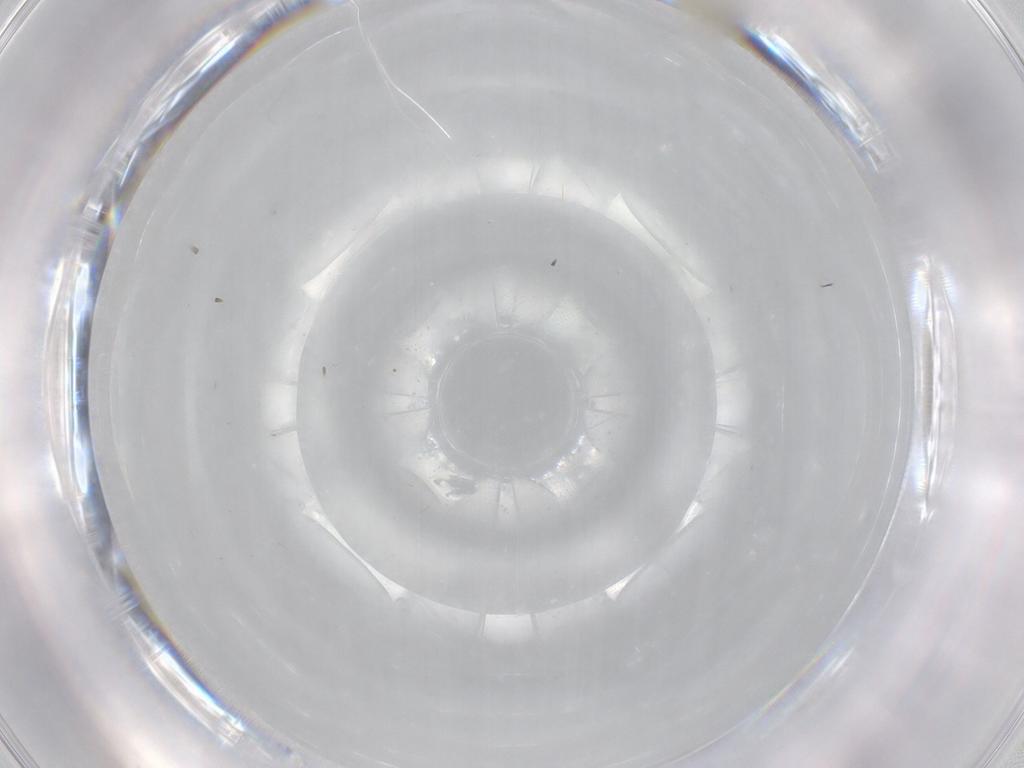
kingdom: Animalia
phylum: Arthropoda
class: Insecta
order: Diptera
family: Cecidomyiidae
